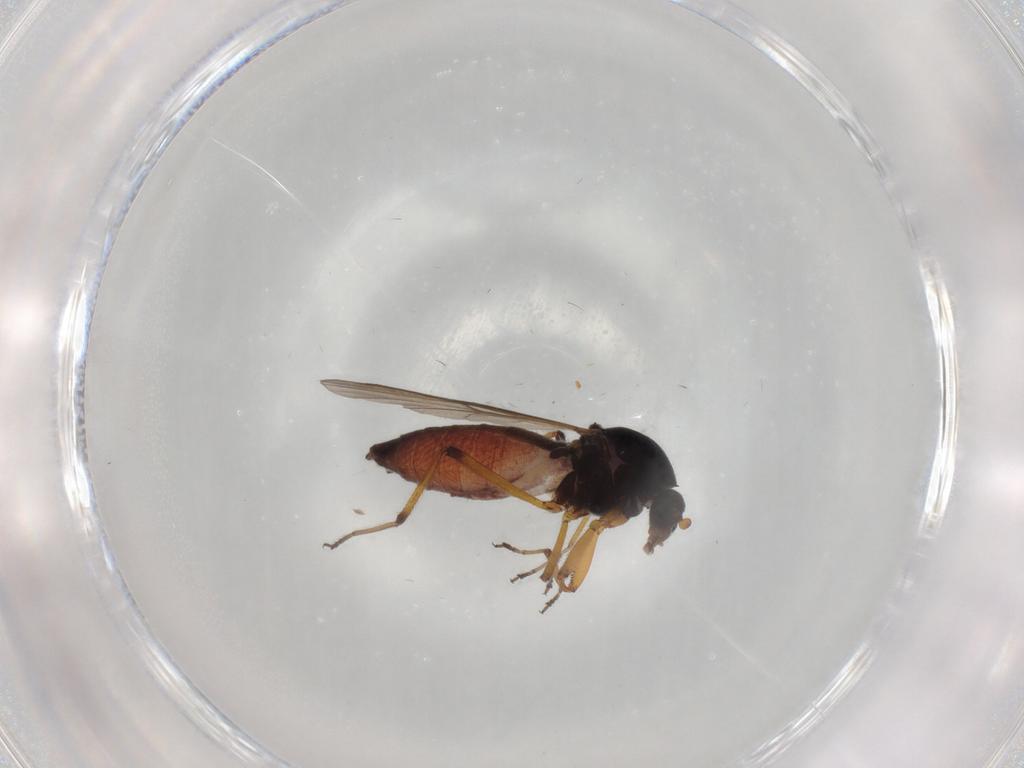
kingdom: Animalia
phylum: Arthropoda
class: Insecta
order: Diptera
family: Ceratopogonidae
